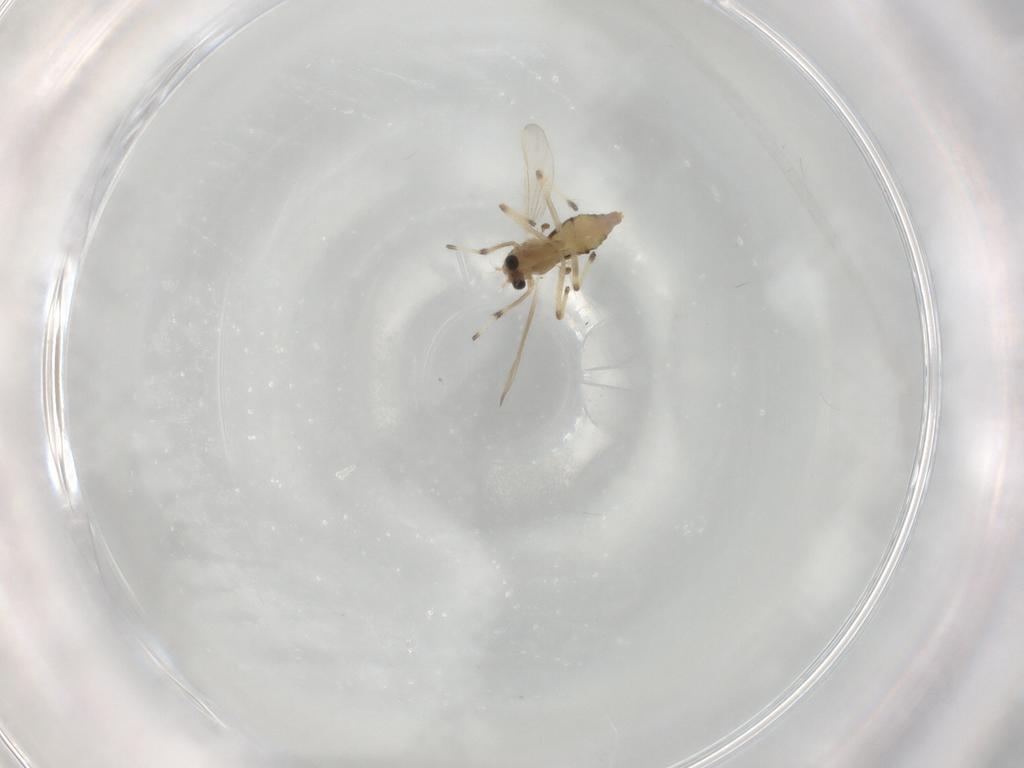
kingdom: Animalia
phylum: Arthropoda
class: Insecta
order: Diptera
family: Chironomidae
